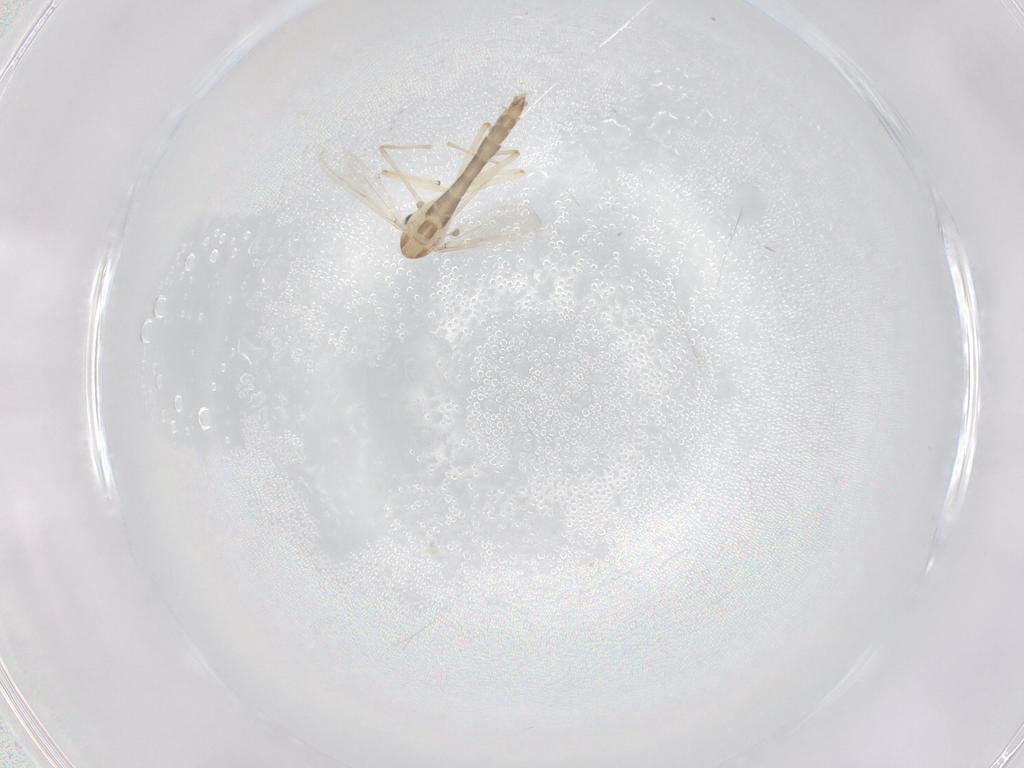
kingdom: Animalia
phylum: Arthropoda
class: Insecta
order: Diptera
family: Chironomidae
